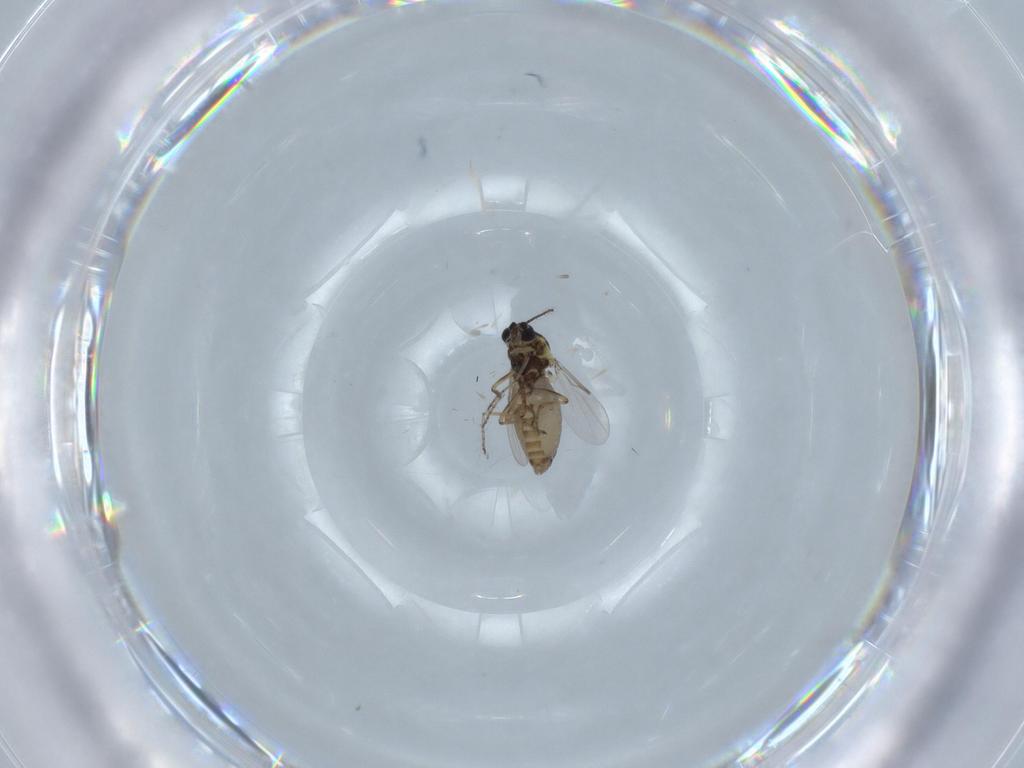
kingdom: Animalia
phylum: Arthropoda
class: Insecta
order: Diptera
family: Ceratopogonidae
